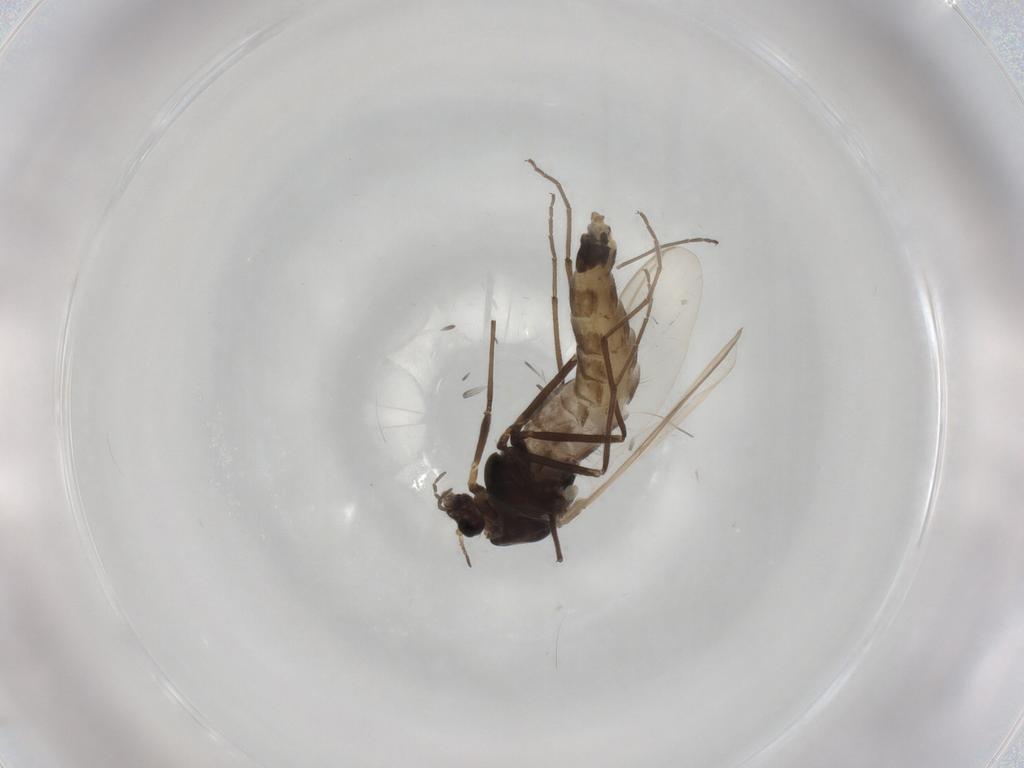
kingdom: Animalia
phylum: Arthropoda
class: Insecta
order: Diptera
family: Chironomidae
